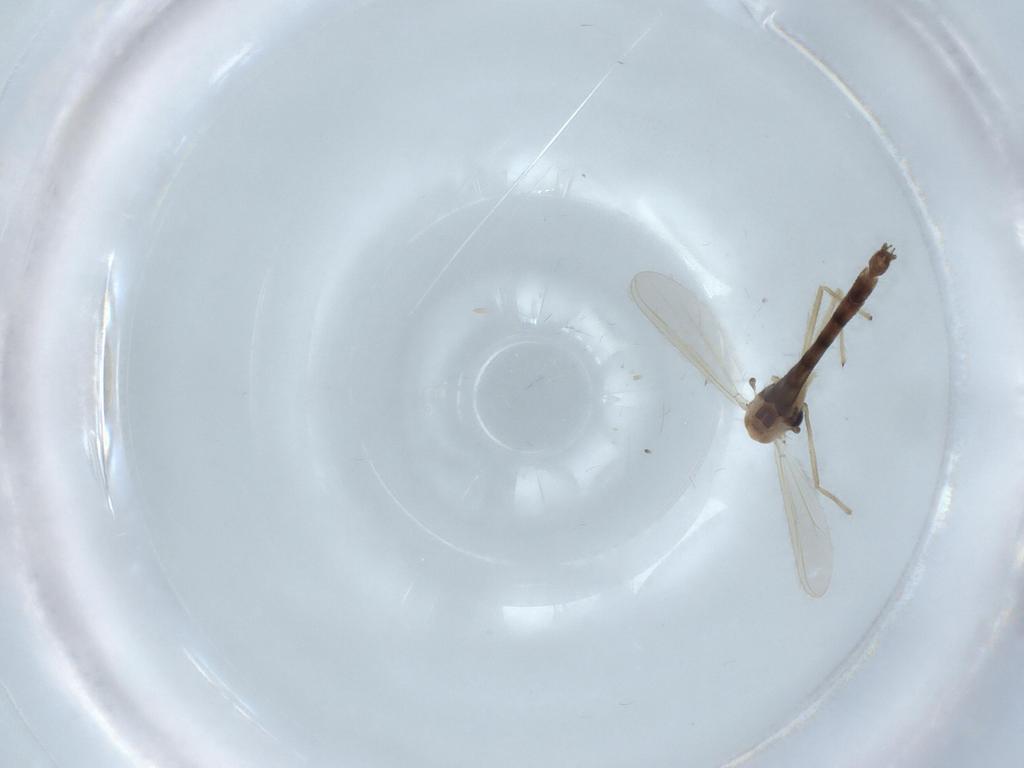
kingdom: Animalia
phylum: Arthropoda
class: Insecta
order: Diptera
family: Chironomidae
